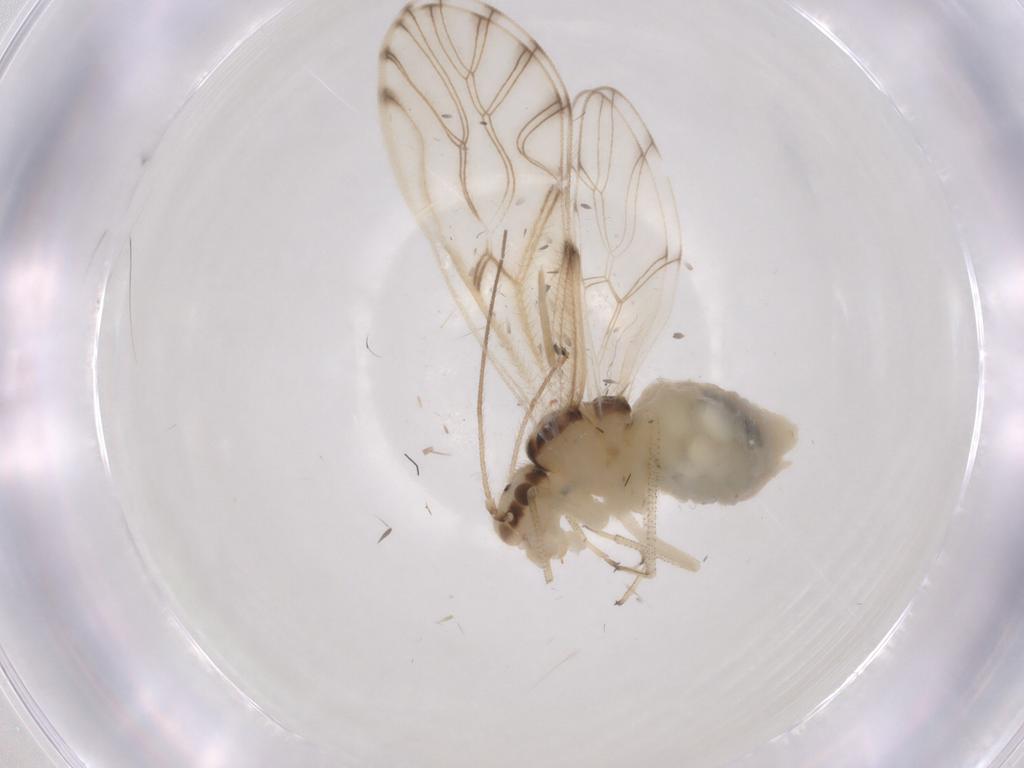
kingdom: Animalia
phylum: Arthropoda
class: Insecta
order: Psocodea
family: Philotarsidae
